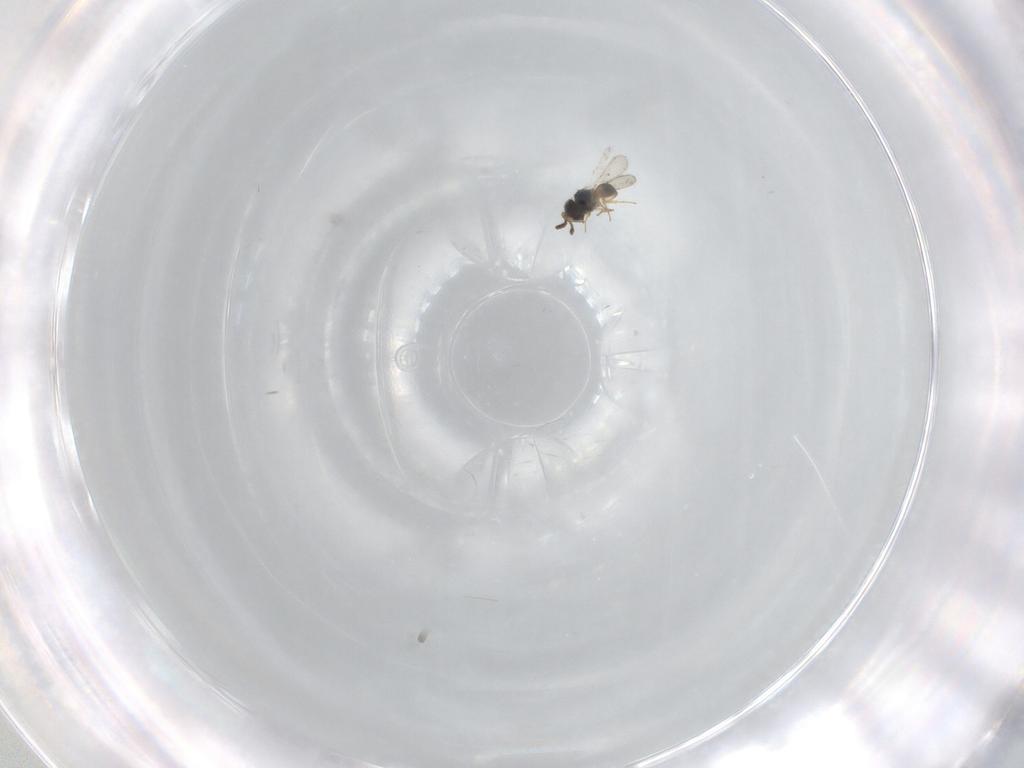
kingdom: Animalia
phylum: Arthropoda
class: Insecta
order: Hymenoptera
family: Scelionidae
